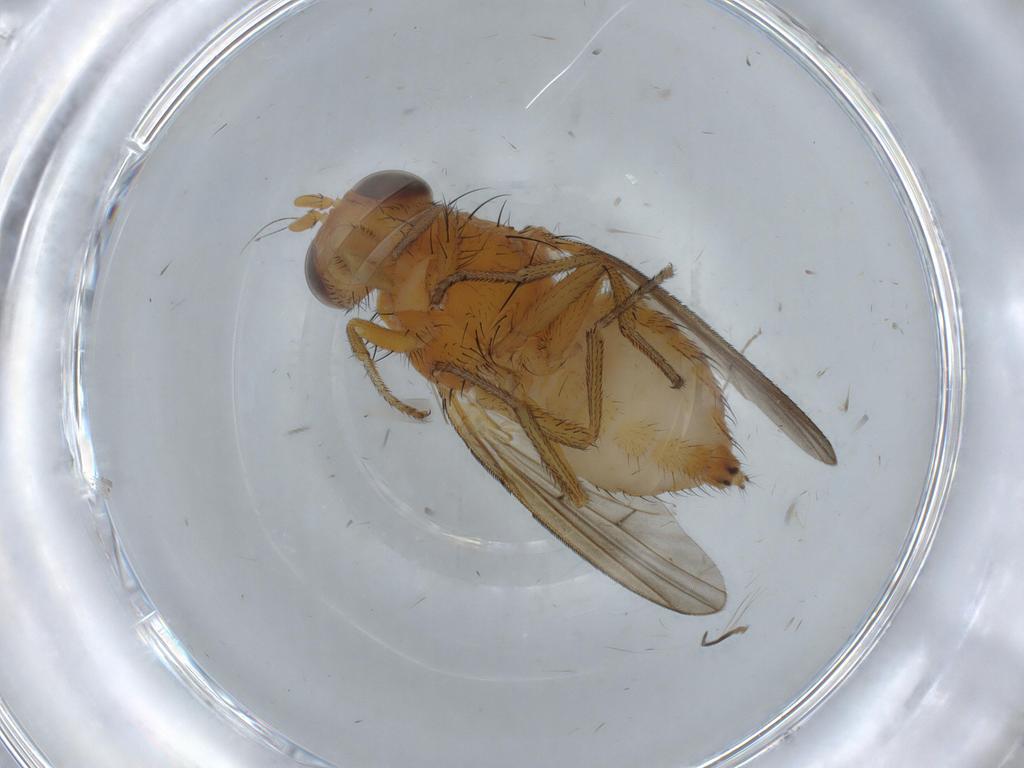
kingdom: Animalia
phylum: Arthropoda
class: Insecta
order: Diptera
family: Chironomidae
